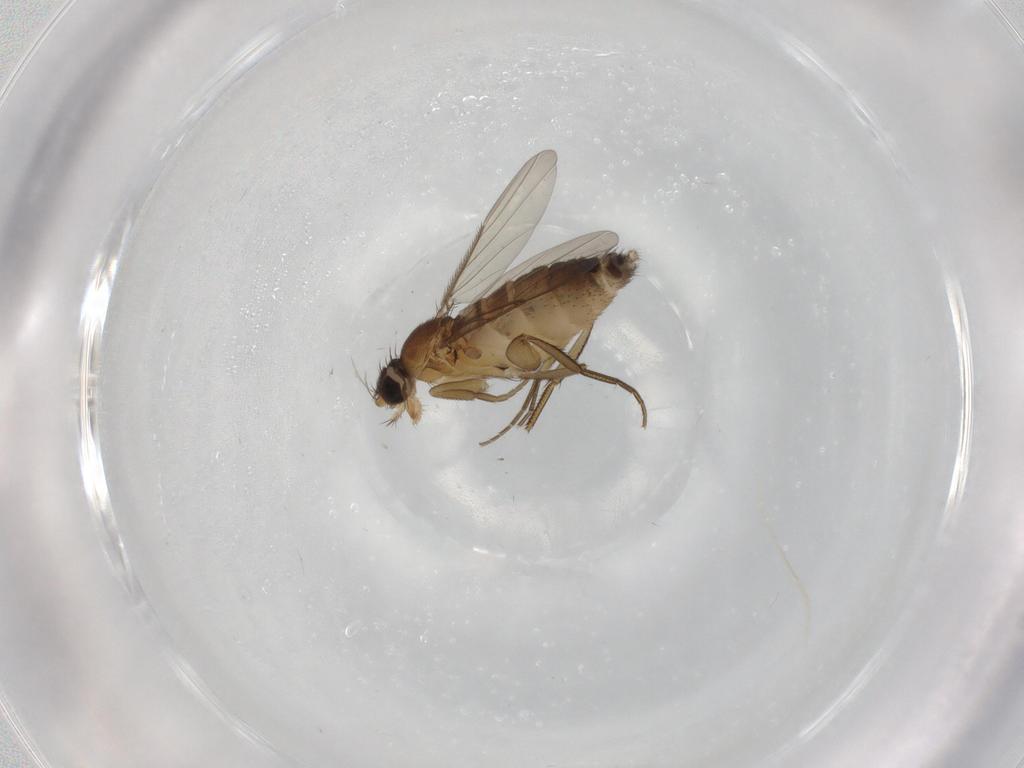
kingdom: Animalia
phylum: Arthropoda
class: Insecta
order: Diptera
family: Phoridae
